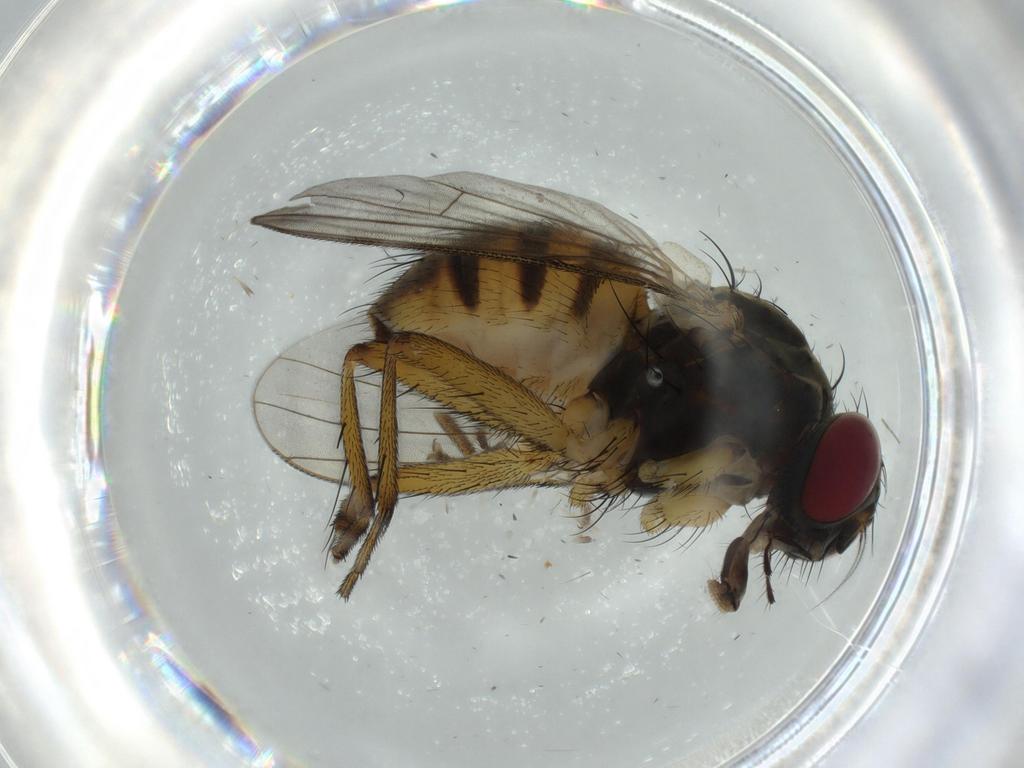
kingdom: Animalia
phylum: Arthropoda
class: Insecta
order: Diptera
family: Muscidae
